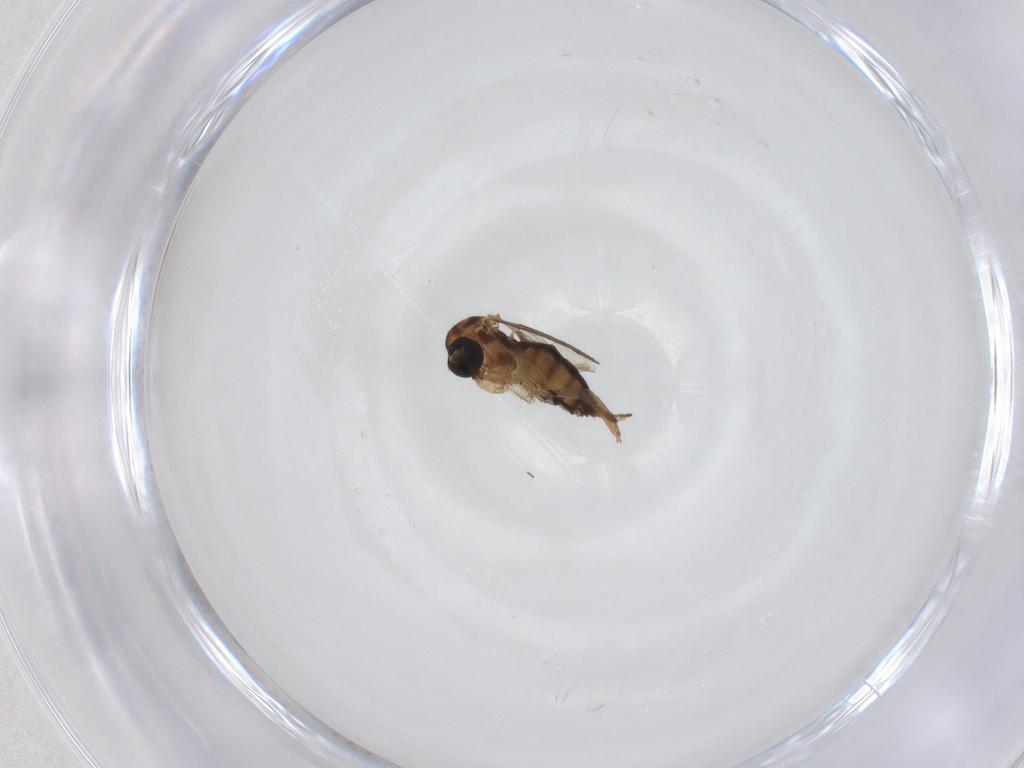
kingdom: Animalia
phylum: Arthropoda
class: Insecta
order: Diptera
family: Sciaridae
